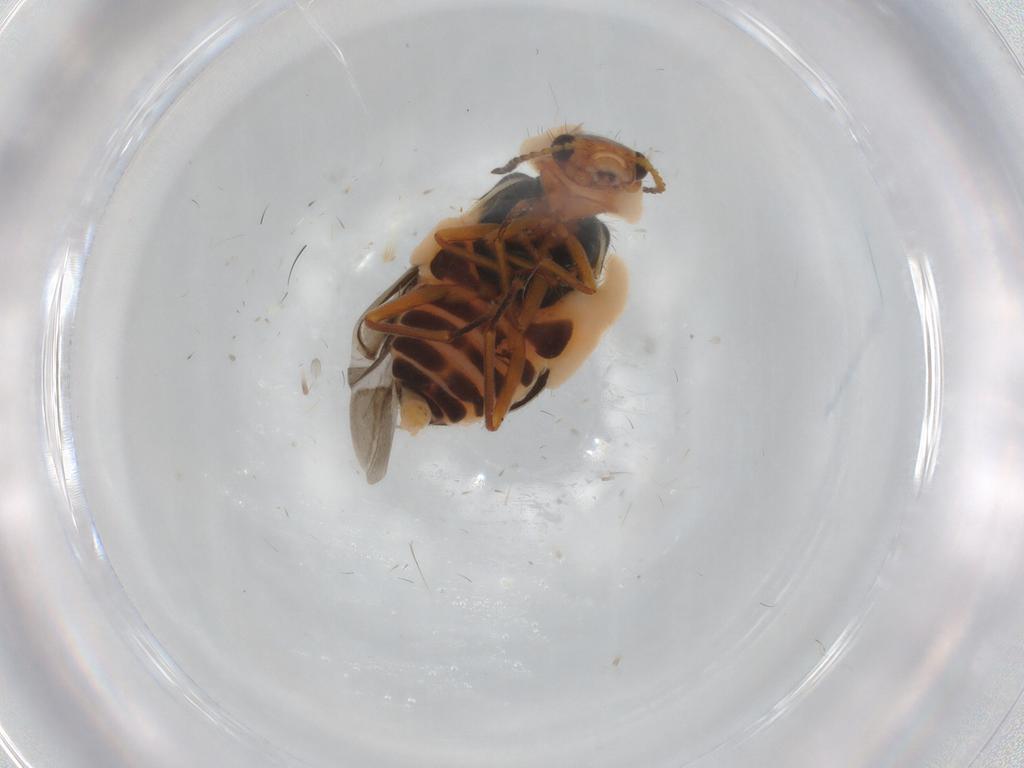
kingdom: Animalia
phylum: Arthropoda
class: Insecta
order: Coleoptera
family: Melyridae
